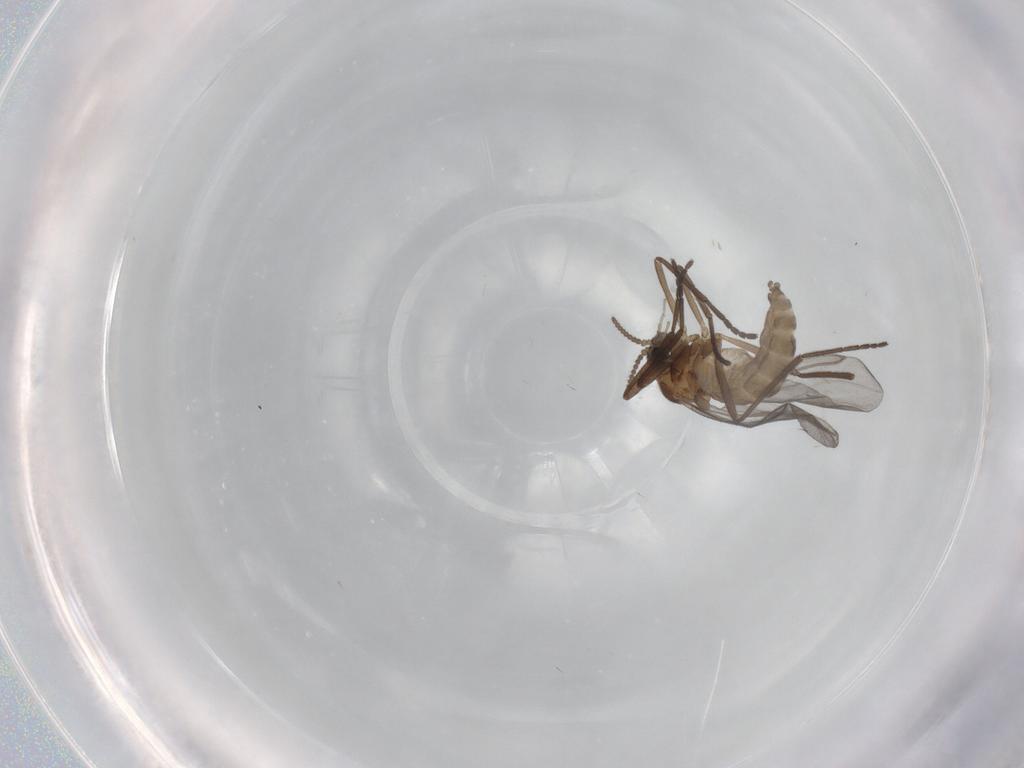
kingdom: Animalia
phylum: Arthropoda
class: Insecta
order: Diptera
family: Cecidomyiidae
